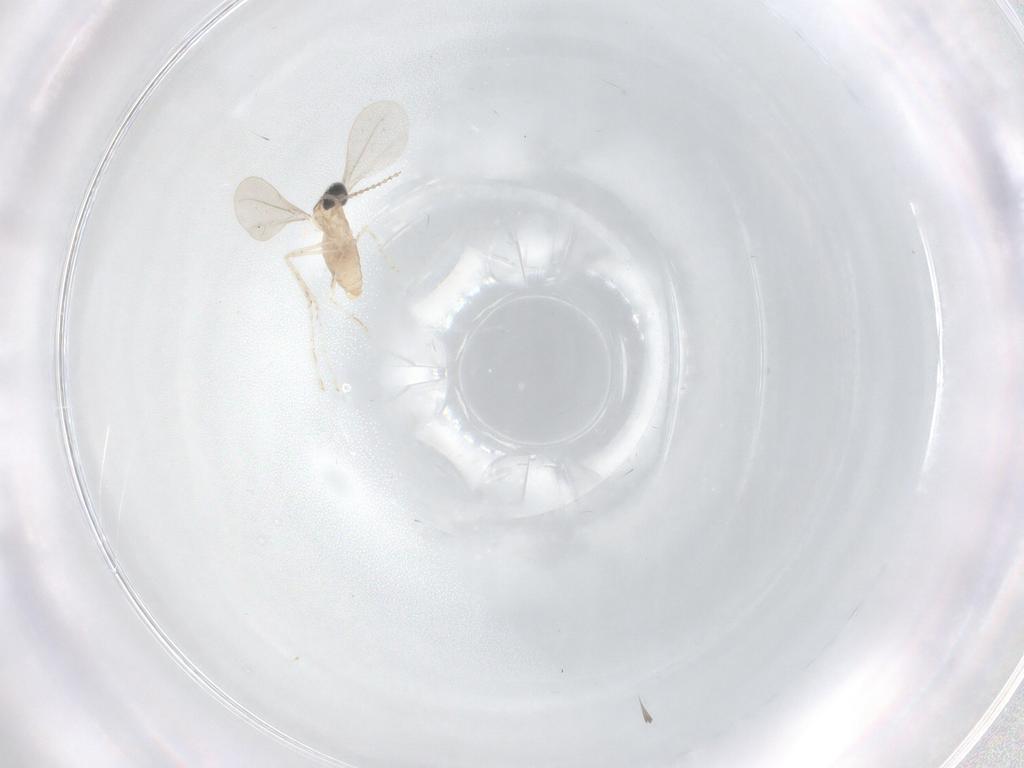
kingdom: Animalia
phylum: Arthropoda
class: Insecta
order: Diptera
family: Cecidomyiidae
